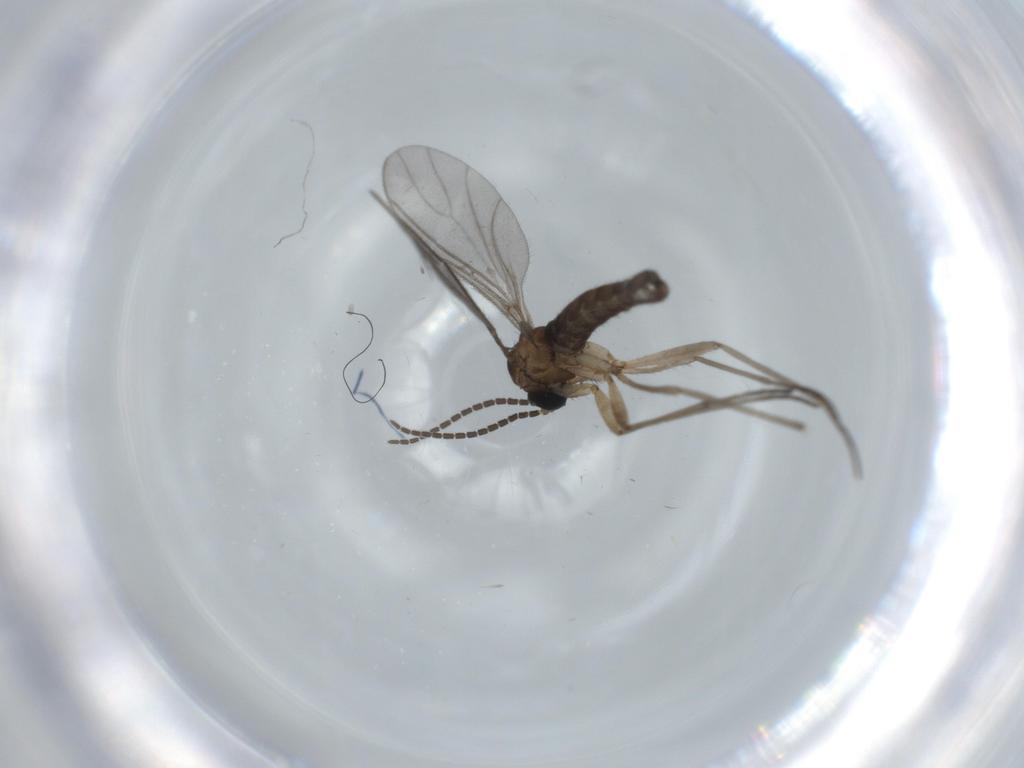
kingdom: Animalia
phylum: Arthropoda
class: Insecta
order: Diptera
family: Sciaridae
